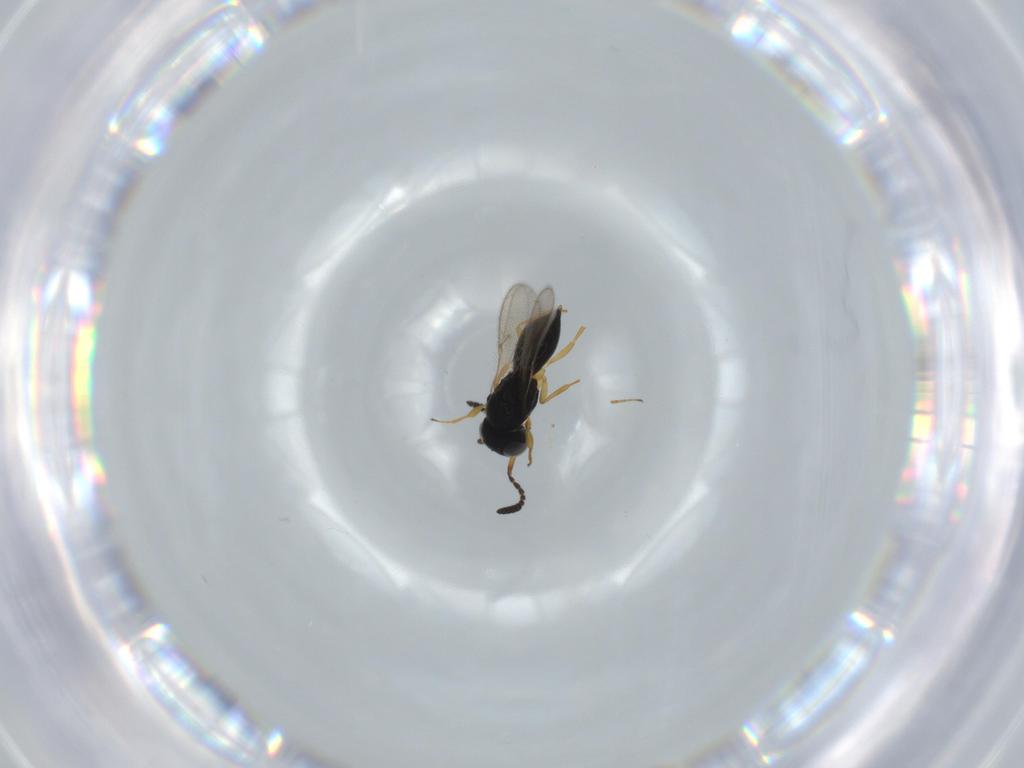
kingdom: Animalia
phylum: Arthropoda
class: Insecta
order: Hymenoptera
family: Scelionidae
